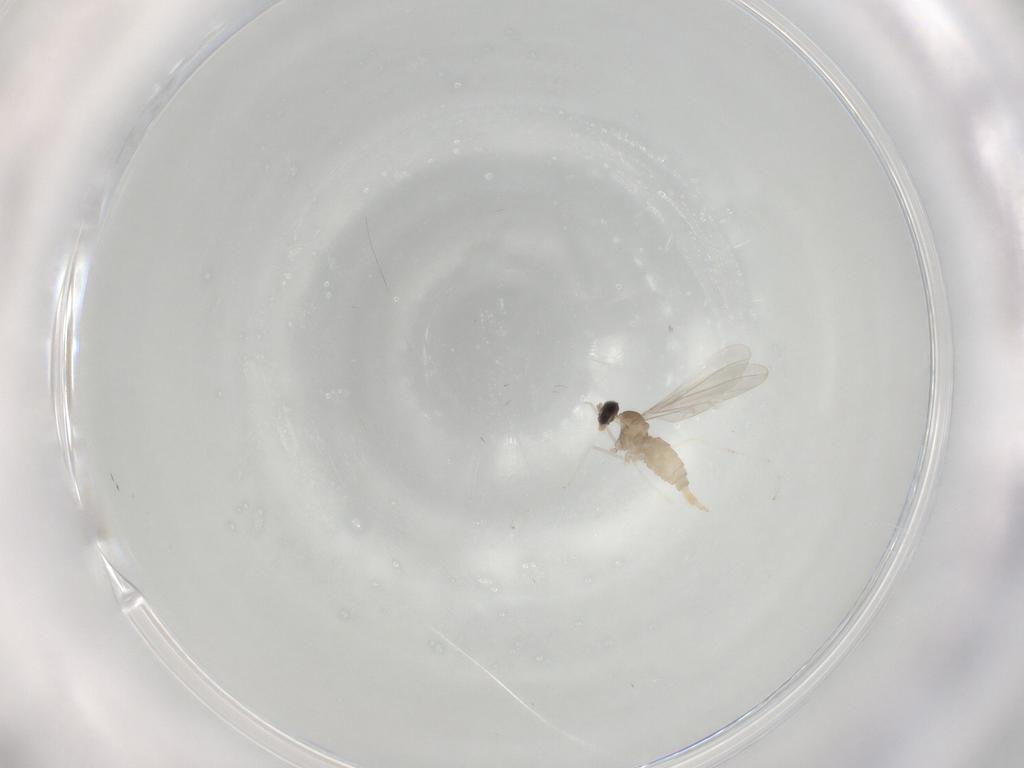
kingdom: Animalia
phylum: Arthropoda
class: Insecta
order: Diptera
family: Cecidomyiidae
